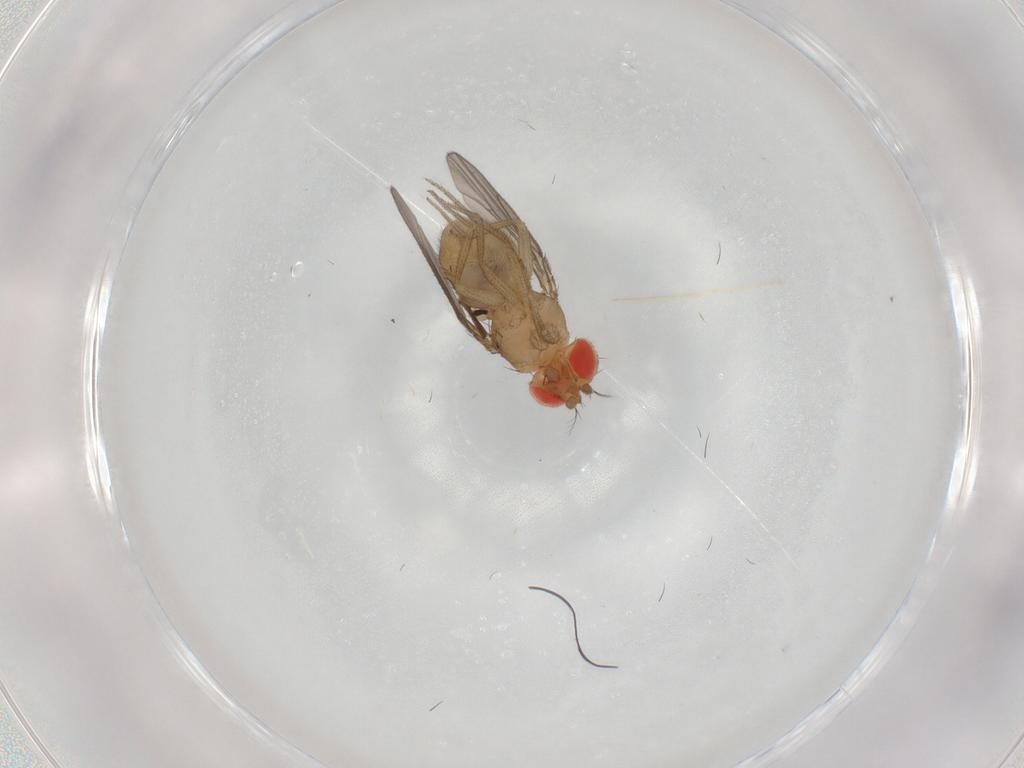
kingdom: Animalia
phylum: Arthropoda
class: Insecta
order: Diptera
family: Drosophilidae
